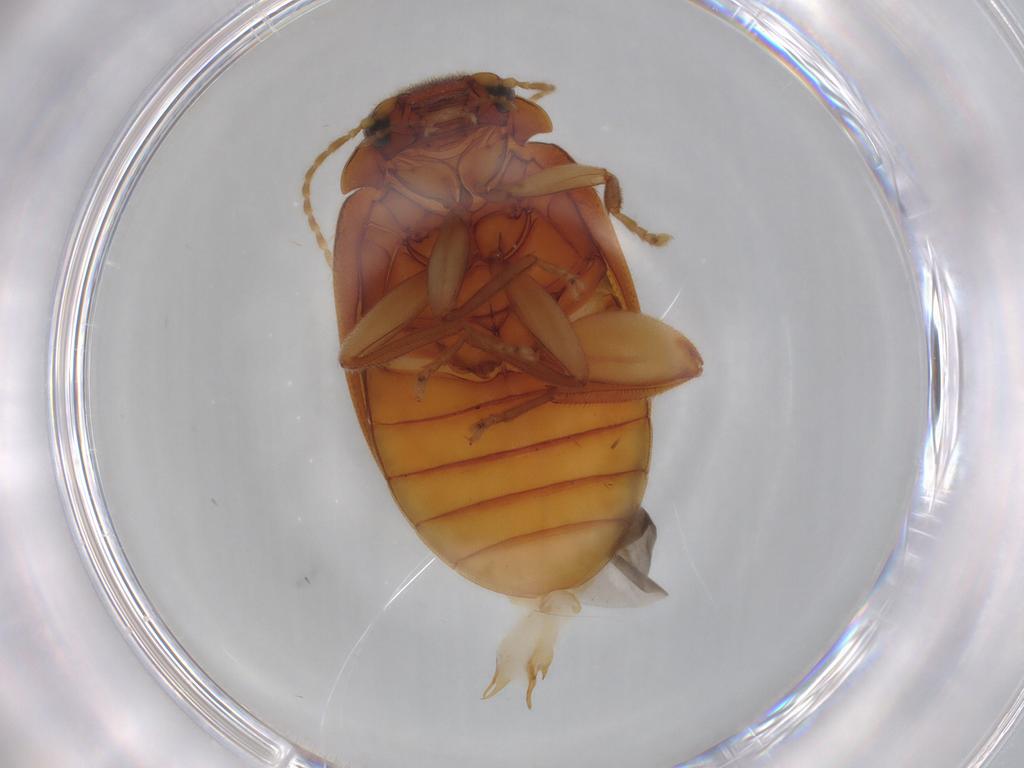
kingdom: Animalia
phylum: Arthropoda
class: Insecta
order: Coleoptera
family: Scirtidae
